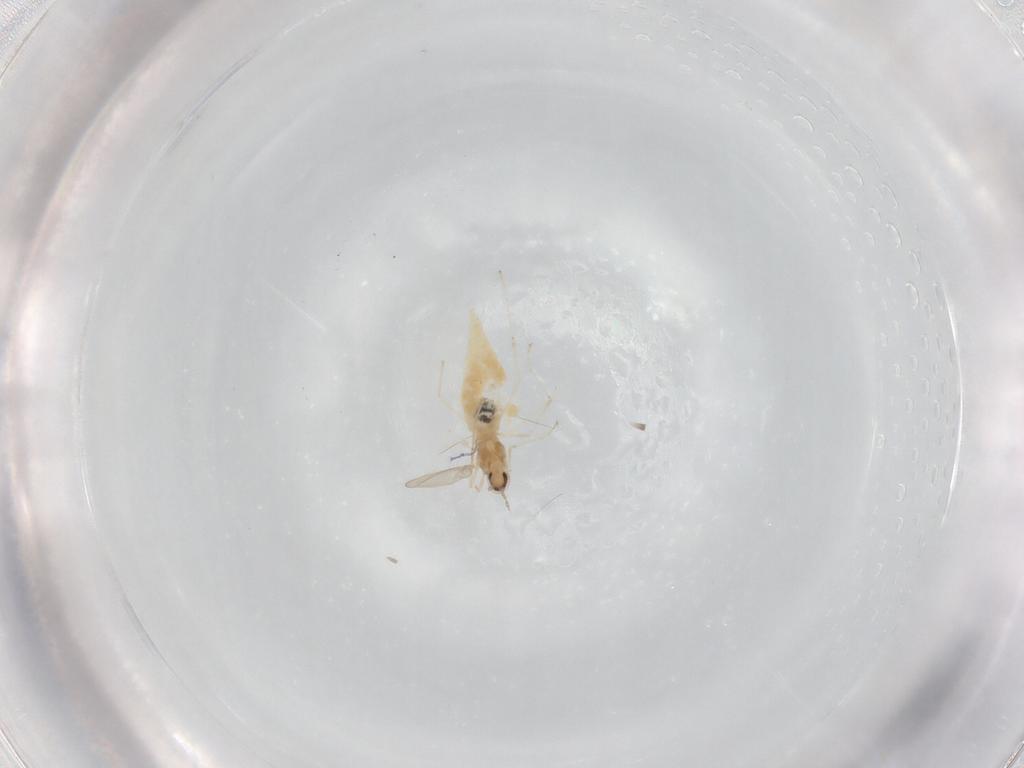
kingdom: Animalia
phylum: Arthropoda
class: Insecta
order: Diptera
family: Cecidomyiidae
